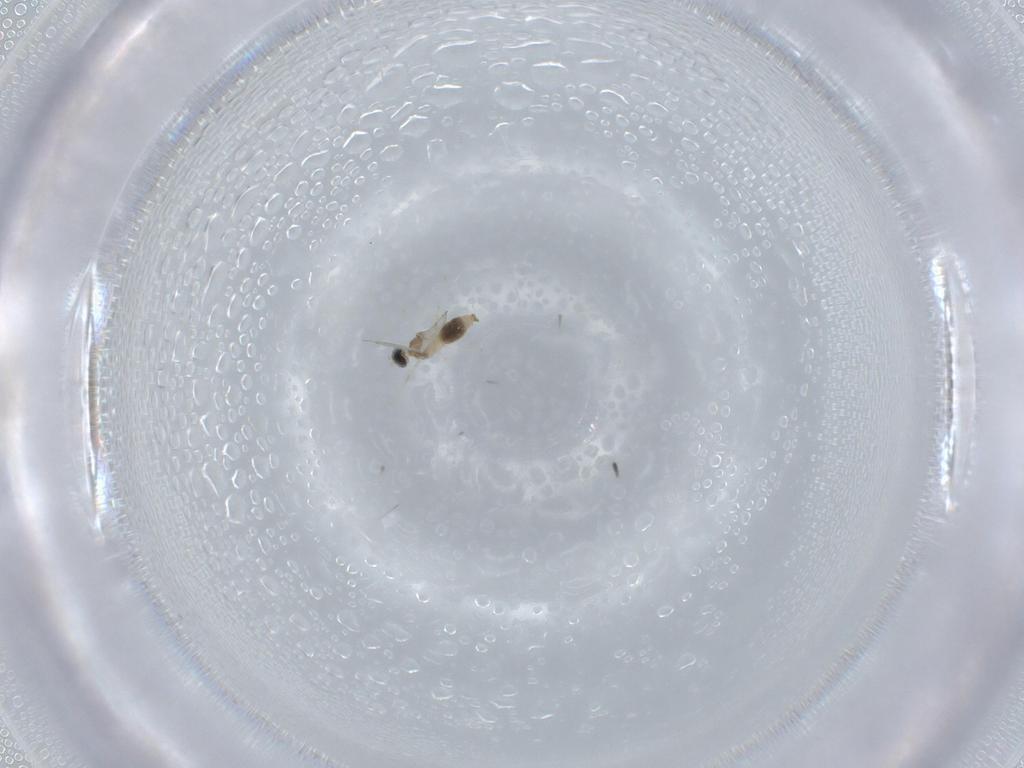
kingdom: Animalia
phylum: Arthropoda
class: Insecta
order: Diptera
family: Cecidomyiidae
